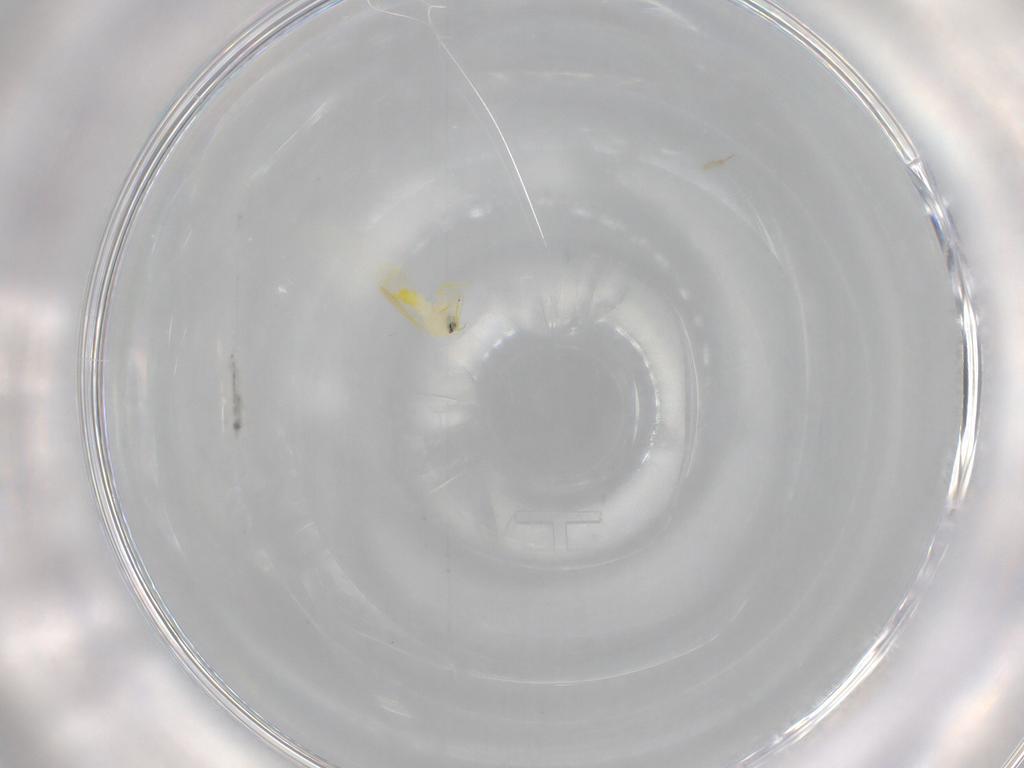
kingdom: Animalia
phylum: Arthropoda
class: Insecta
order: Hemiptera
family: Aleyrodidae
